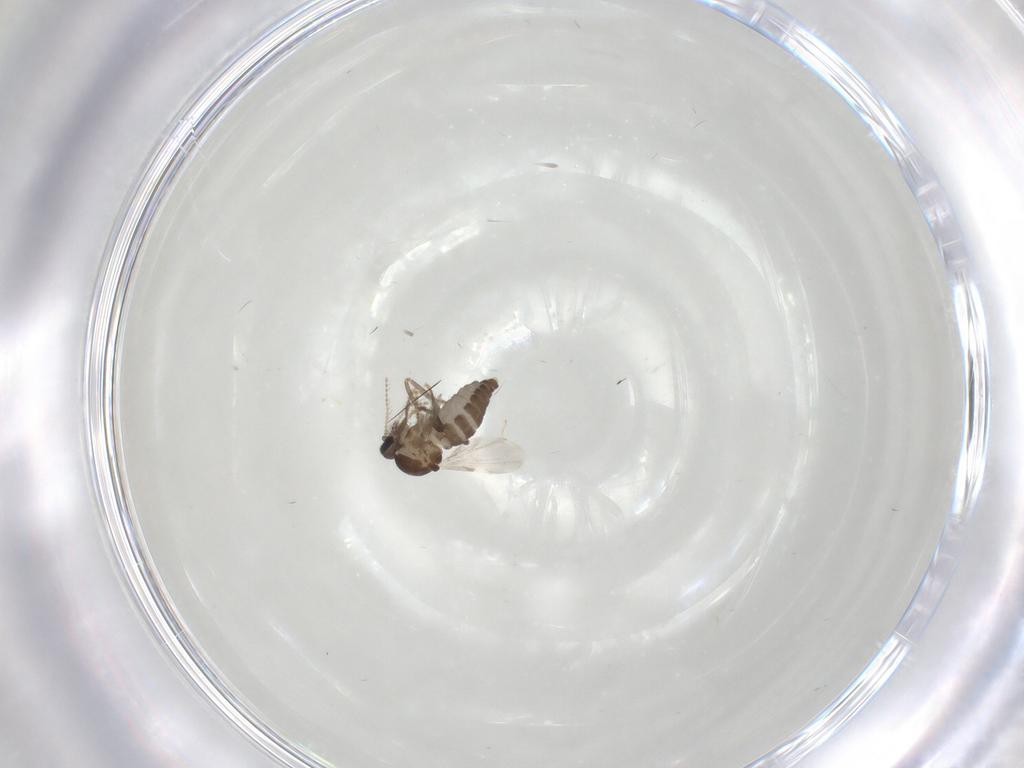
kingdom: Animalia
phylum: Arthropoda
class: Insecta
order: Diptera
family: Ceratopogonidae
